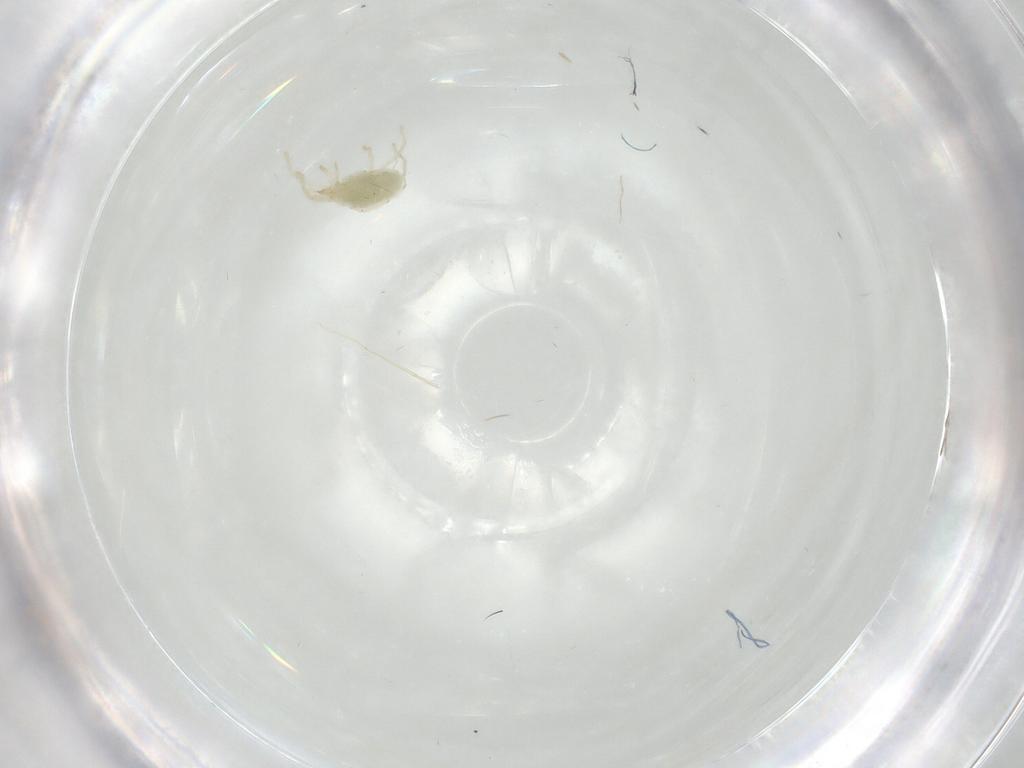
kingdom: Animalia
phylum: Arthropoda
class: Arachnida
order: Trombidiformes
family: Erythraeidae
